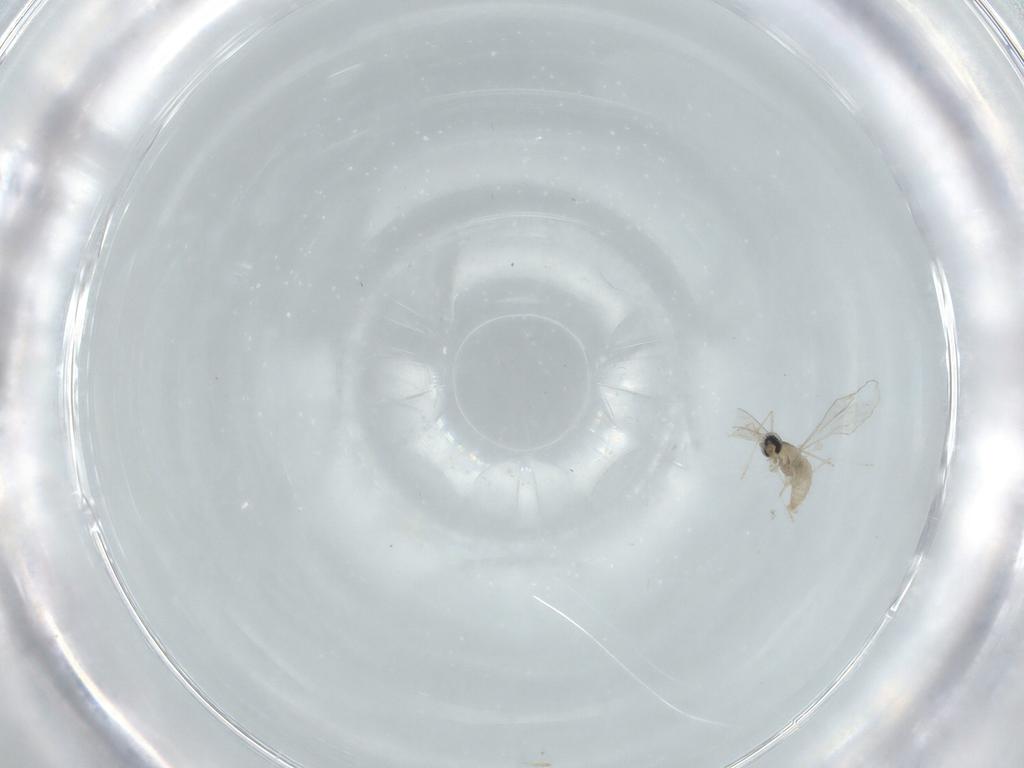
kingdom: Animalia
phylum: Arthropoda
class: Insecta
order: Diptera
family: Cecidomyiidae
